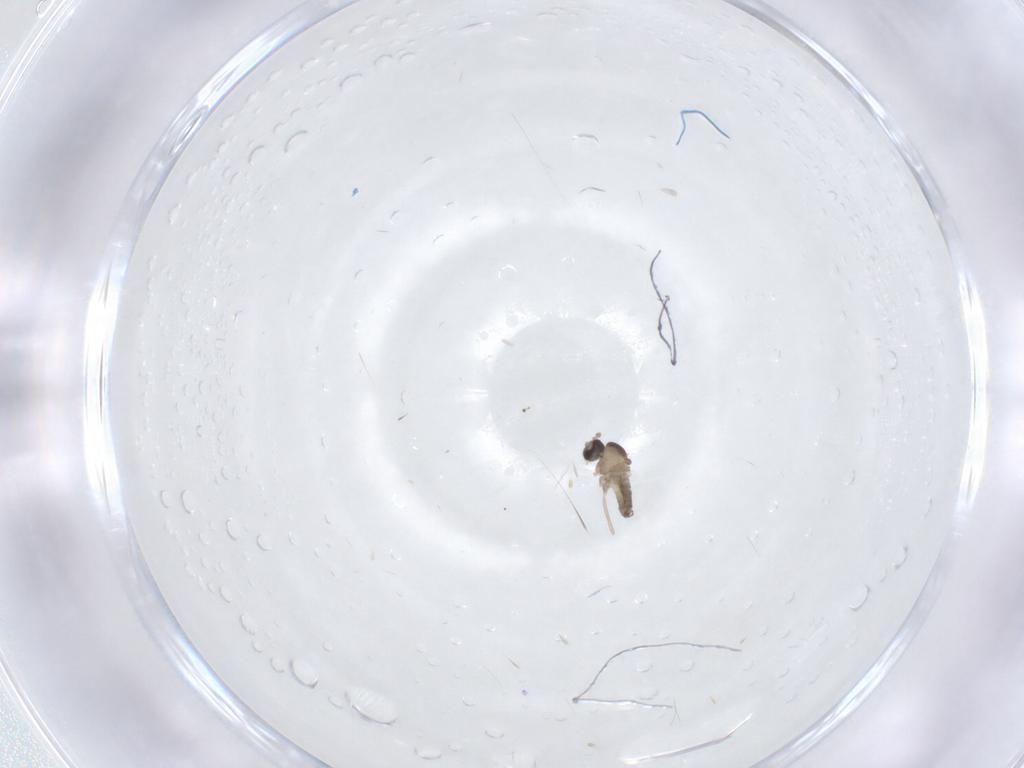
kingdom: Animalia
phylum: Arthropoda
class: Insecta
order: Diptera
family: Cecidomyiidae
